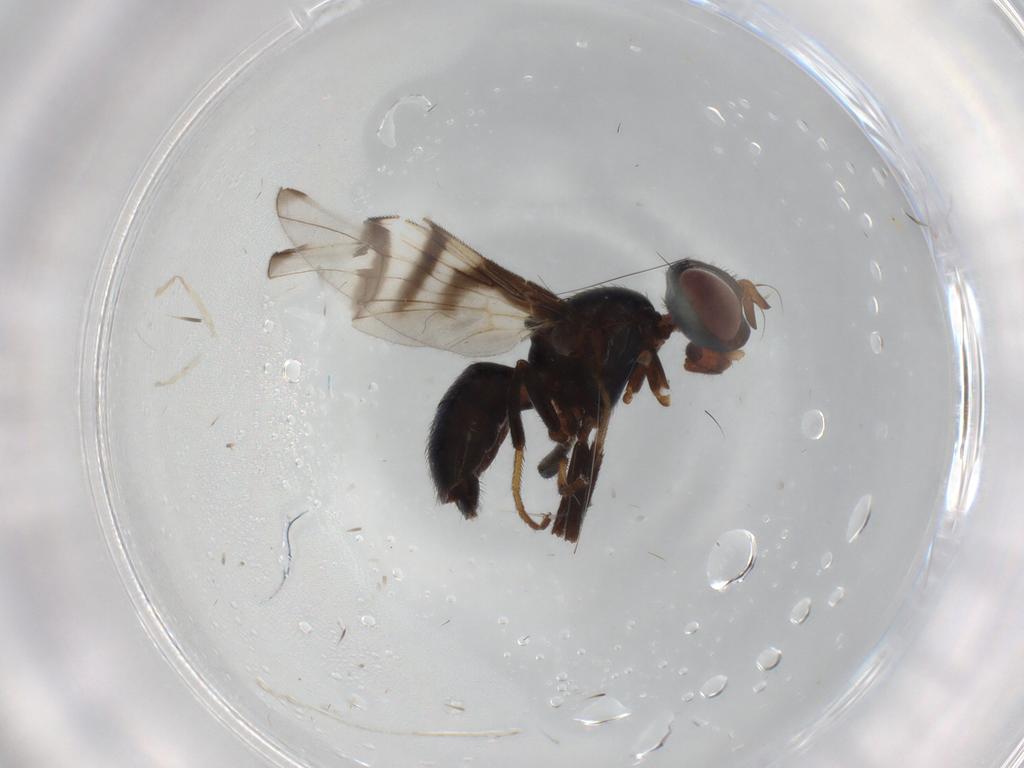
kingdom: Animalia
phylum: Arthropoda
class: Insecta
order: Diptera
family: Platystomatidae
